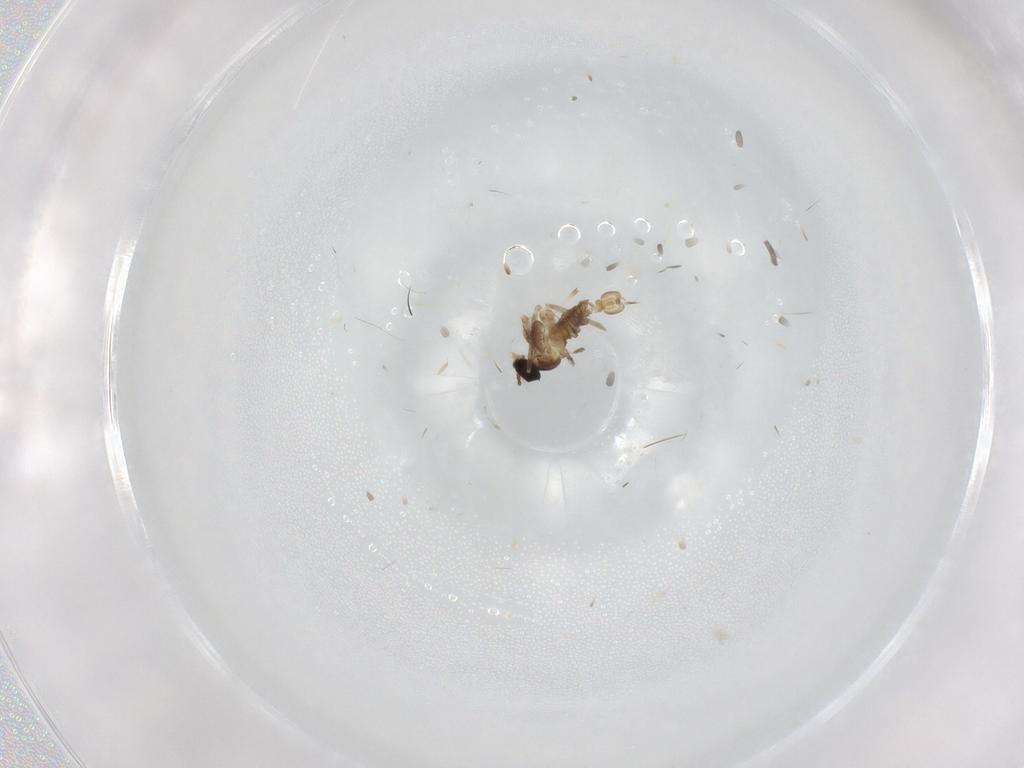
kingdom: Animalia
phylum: Arthropoda
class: Insecta
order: Diptera
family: Cecidomyiidae
